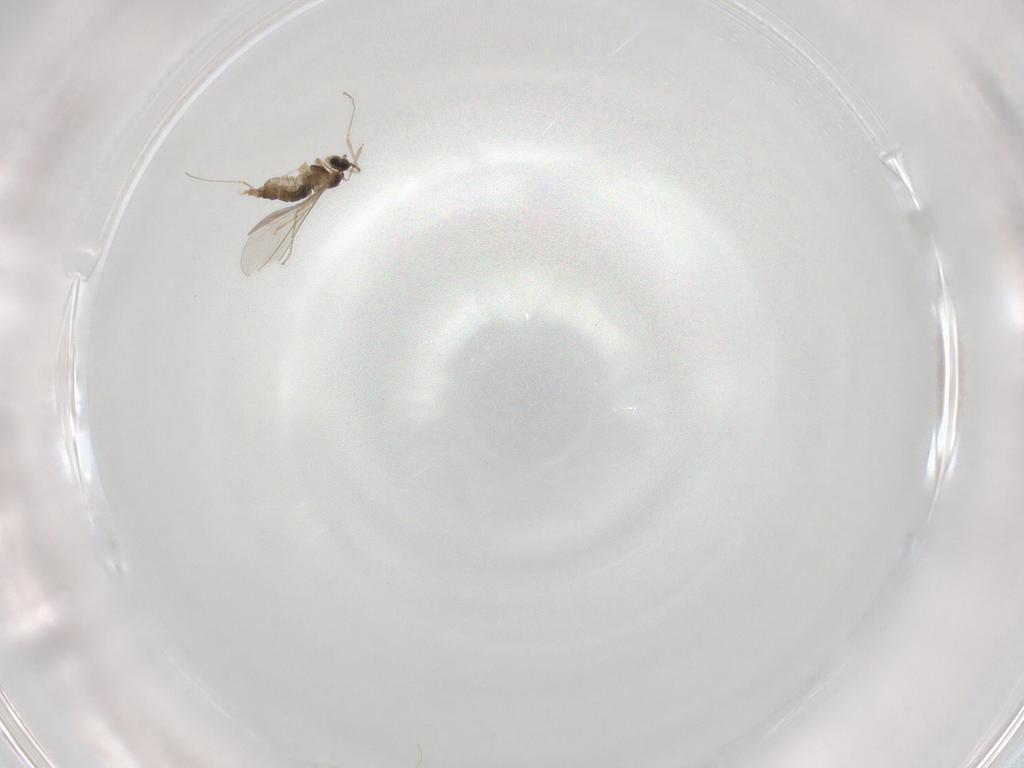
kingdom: Animalia
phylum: Arthropoda
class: Insecta
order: Diptera
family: Cecidomyiidae
